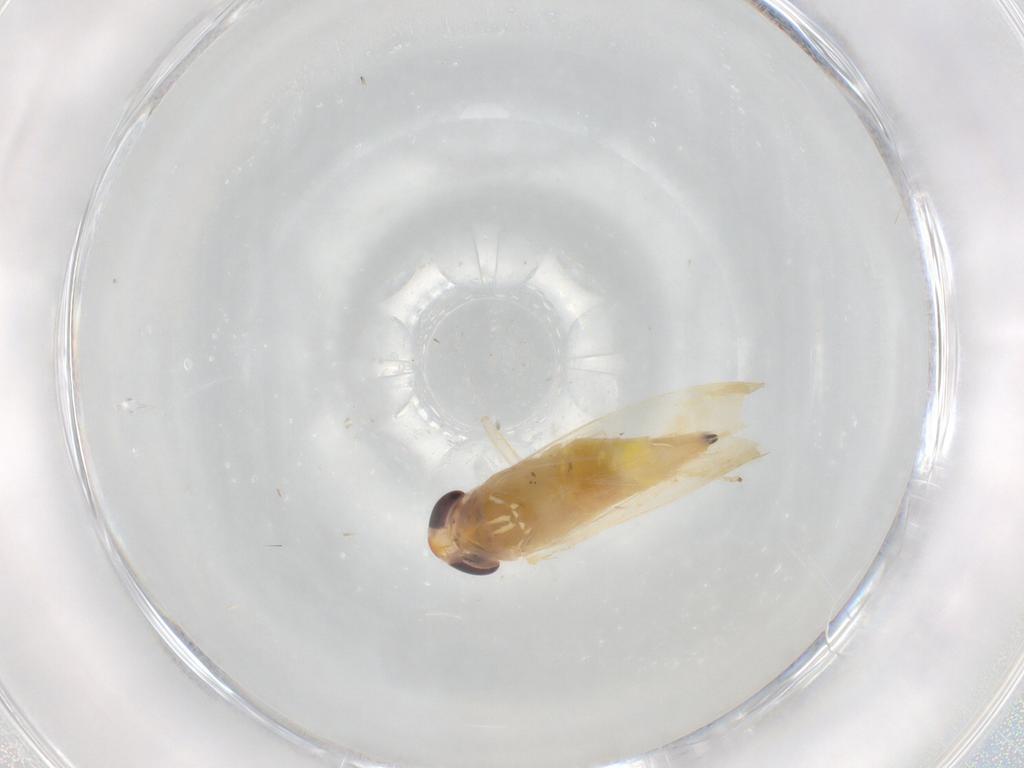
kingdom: Animalia
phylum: Arthropoda
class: Insecta
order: Hemiptera
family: Cicadellidae
